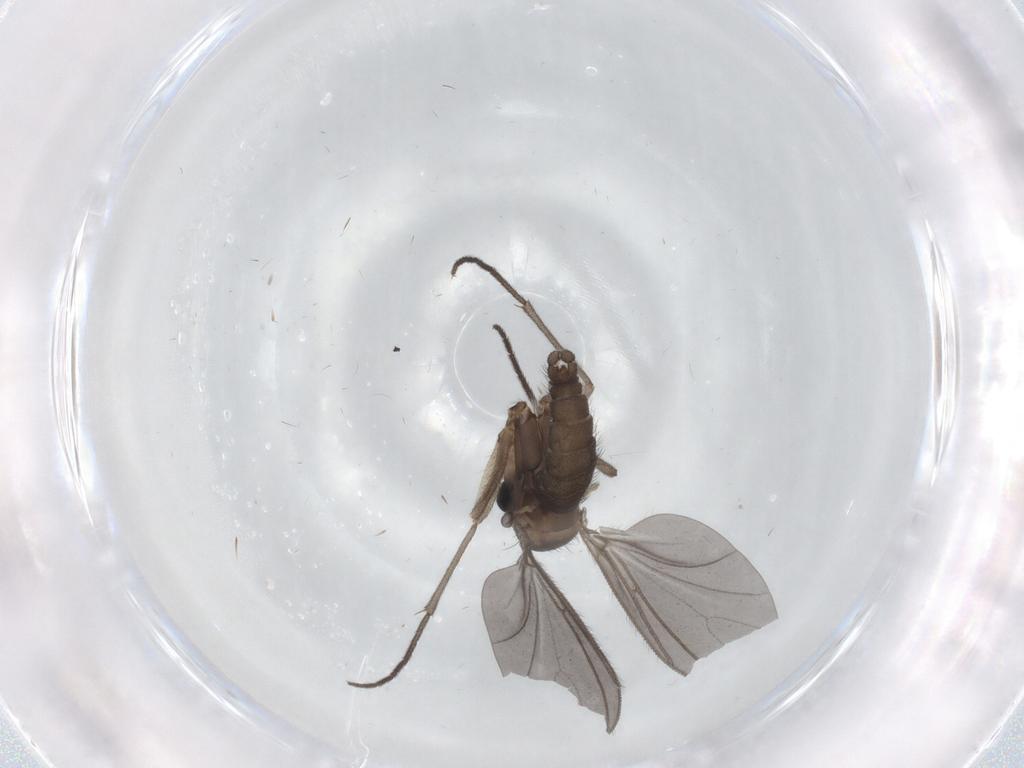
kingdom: Animalia
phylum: Arthropoda
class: Insecta
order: Diptera
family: Sciaridae
